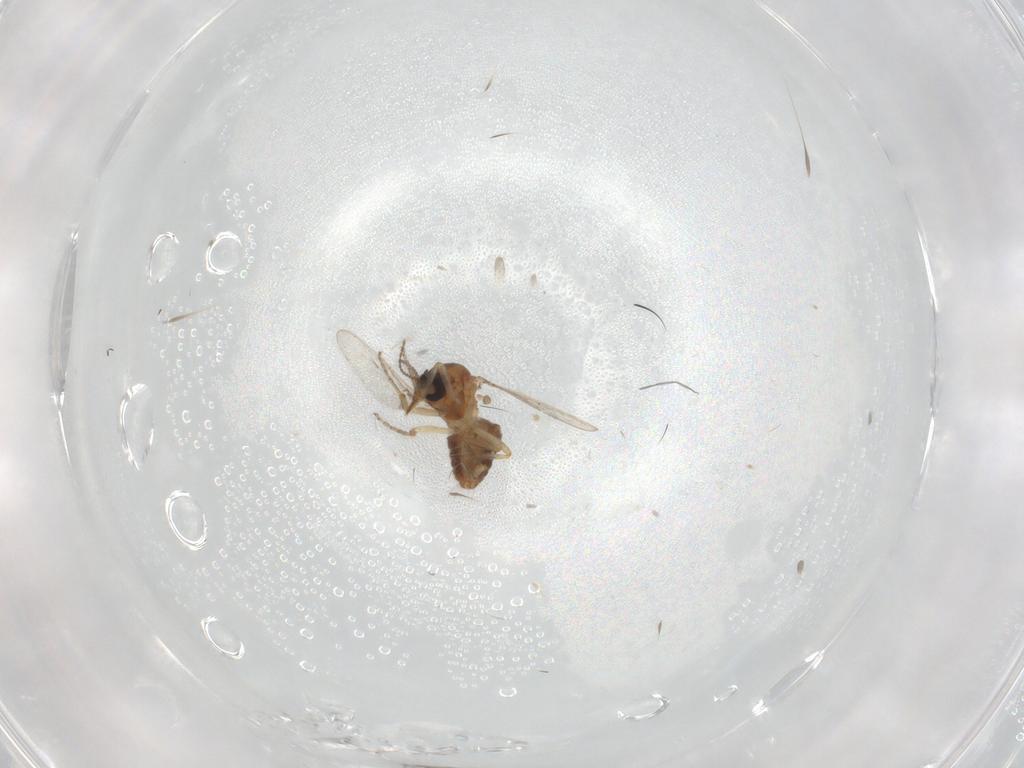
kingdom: Animalia
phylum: Arthropoda
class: Insecta
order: Diptera
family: Ceratopogonidae
